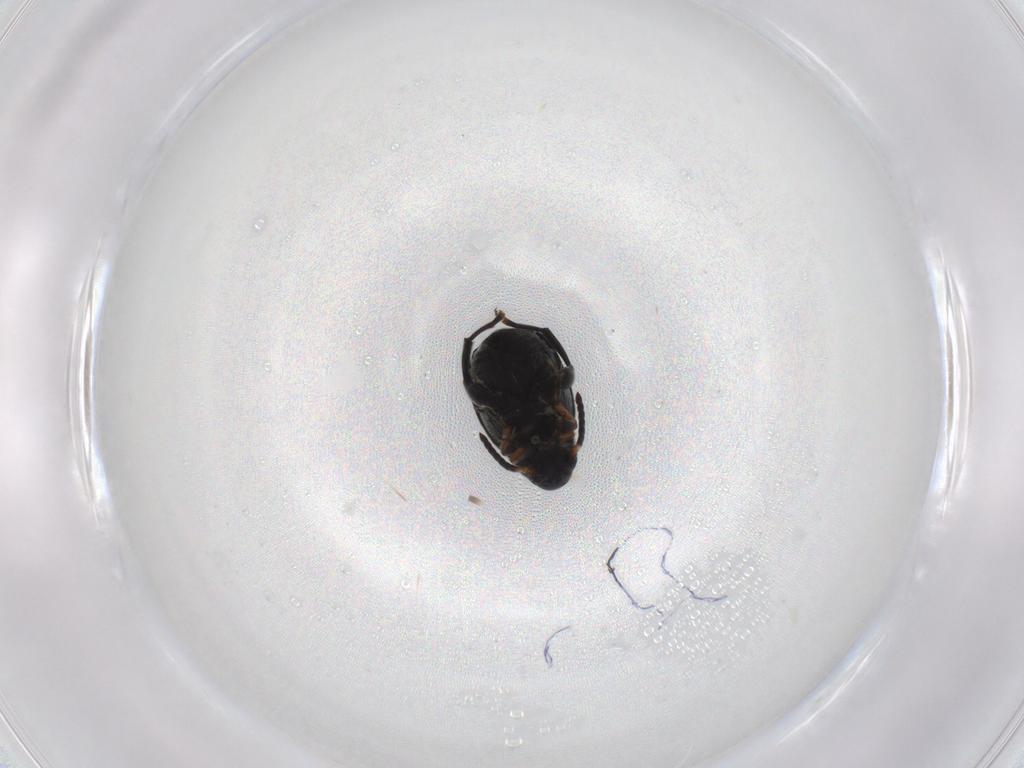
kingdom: Animalia
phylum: Arthropoda
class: Insecta
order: Coleoptera
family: Chrysomelidae
